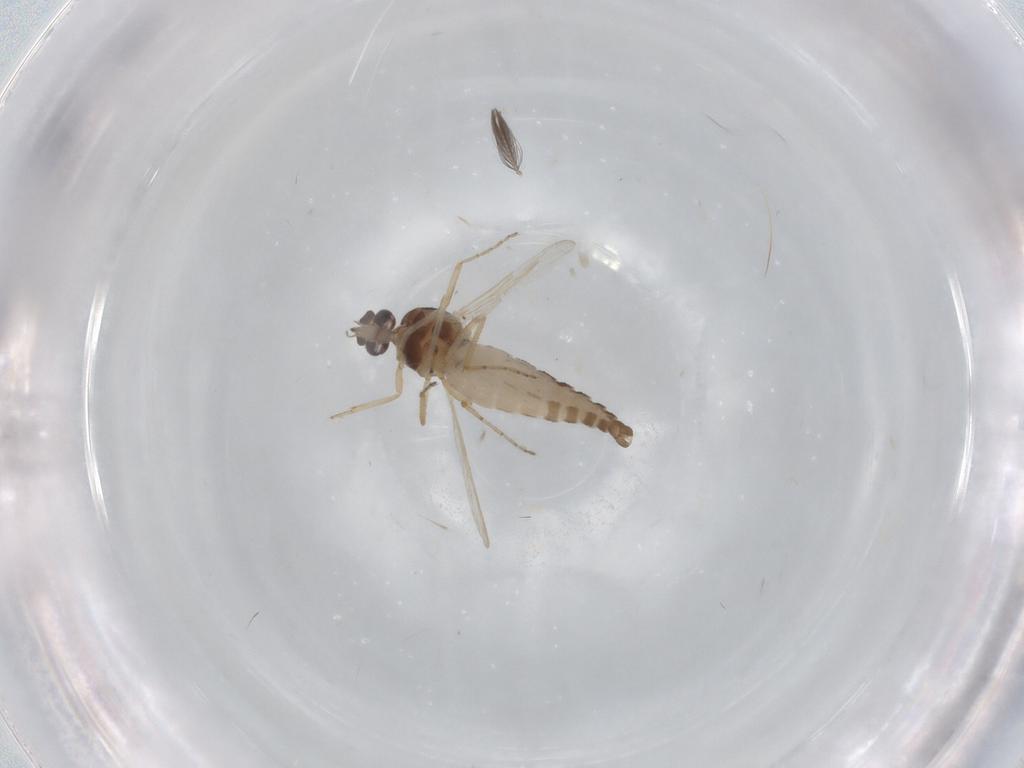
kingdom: Animalia
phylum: Arthropoda
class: Insecta
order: Diptera
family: Ceratopogonidae
